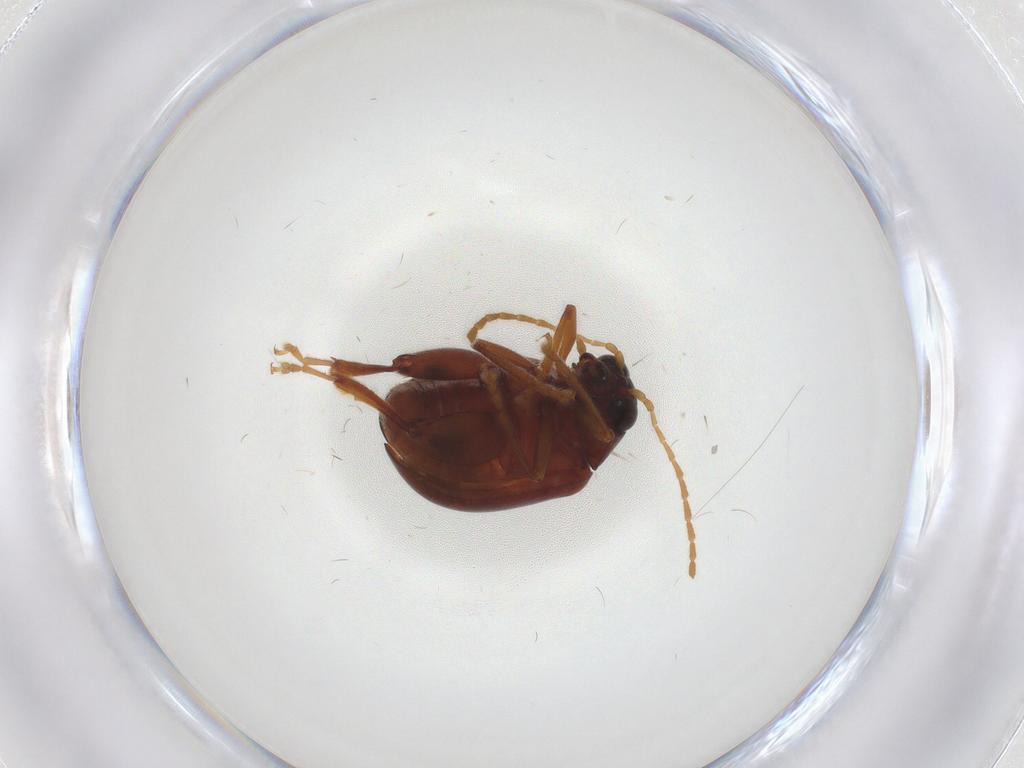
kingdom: Animalia
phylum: Arthropoda
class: Insecta
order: Coleoptera
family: Chrysomelidae
